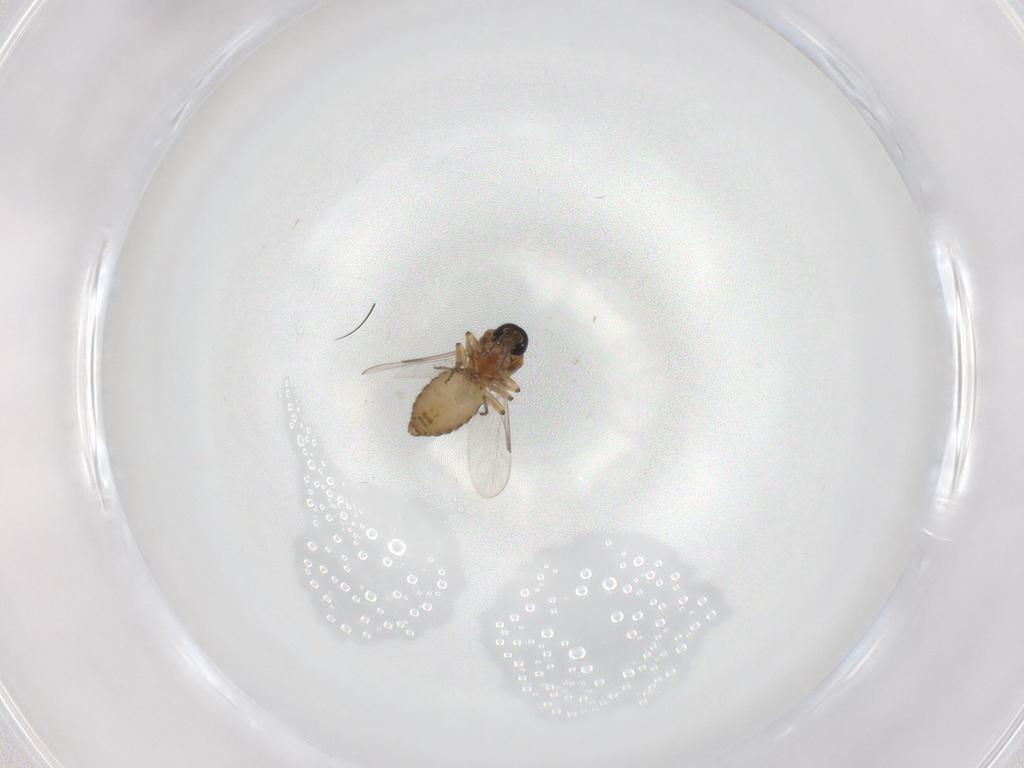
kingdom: Animalia
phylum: Arthropoda
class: Insecta
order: Diptera
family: Ceratopogonidae
